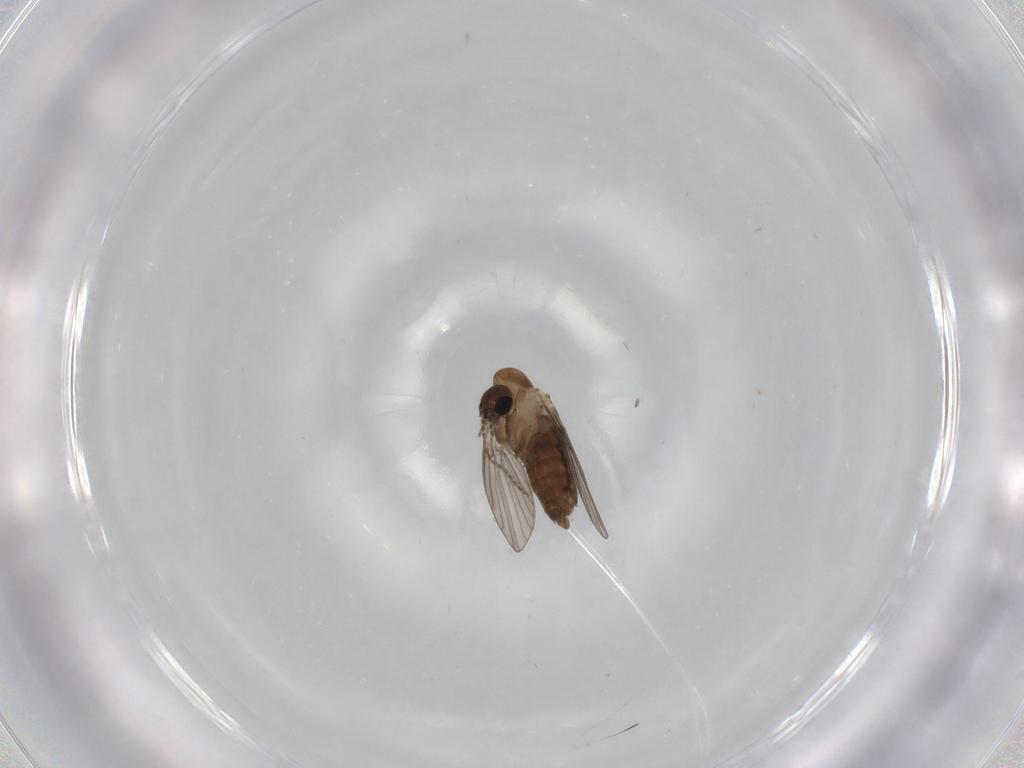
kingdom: Animalia
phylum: Arthropoda
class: Insecta
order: Diptera
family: Psychodidae
